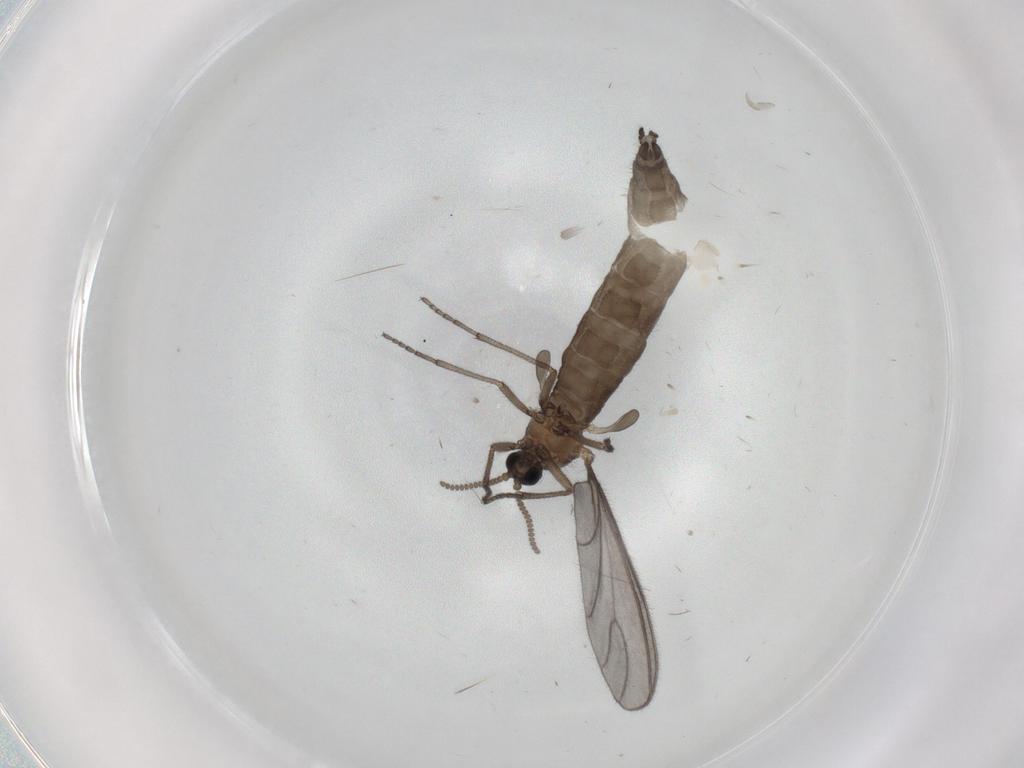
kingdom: Animalia
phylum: Arthropoda
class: Insecta
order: Diptera
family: Sciaridae
